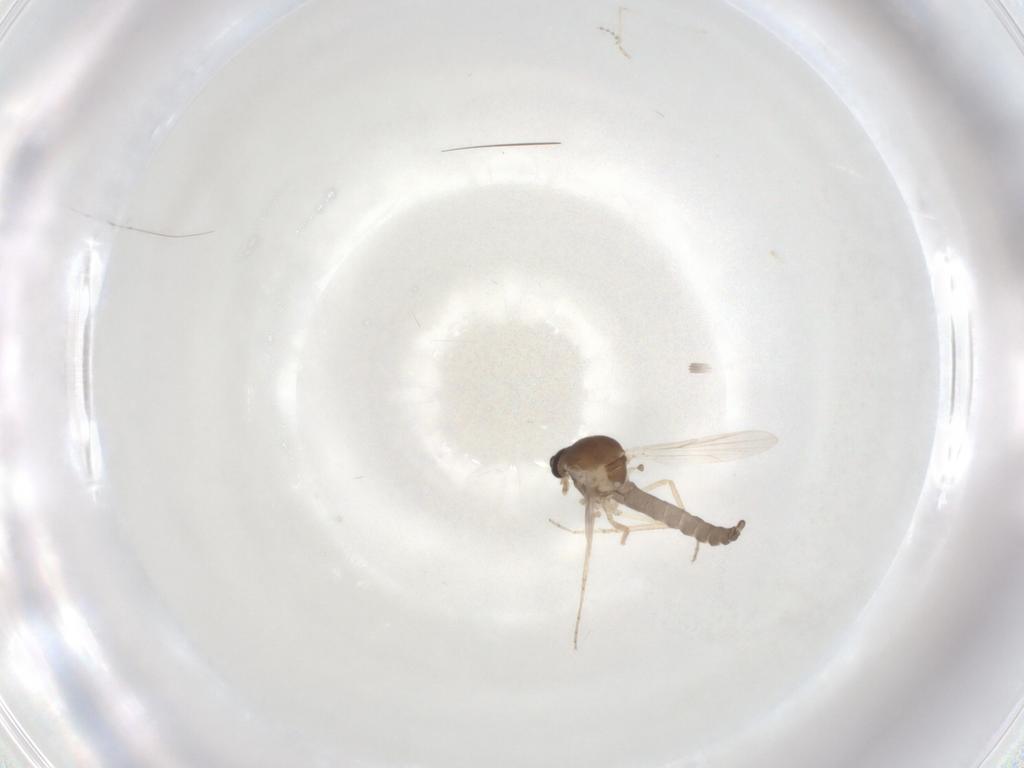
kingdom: Animalia
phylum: Arthropoda
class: Insecta
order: Diptera
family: Ceratopogonidae
